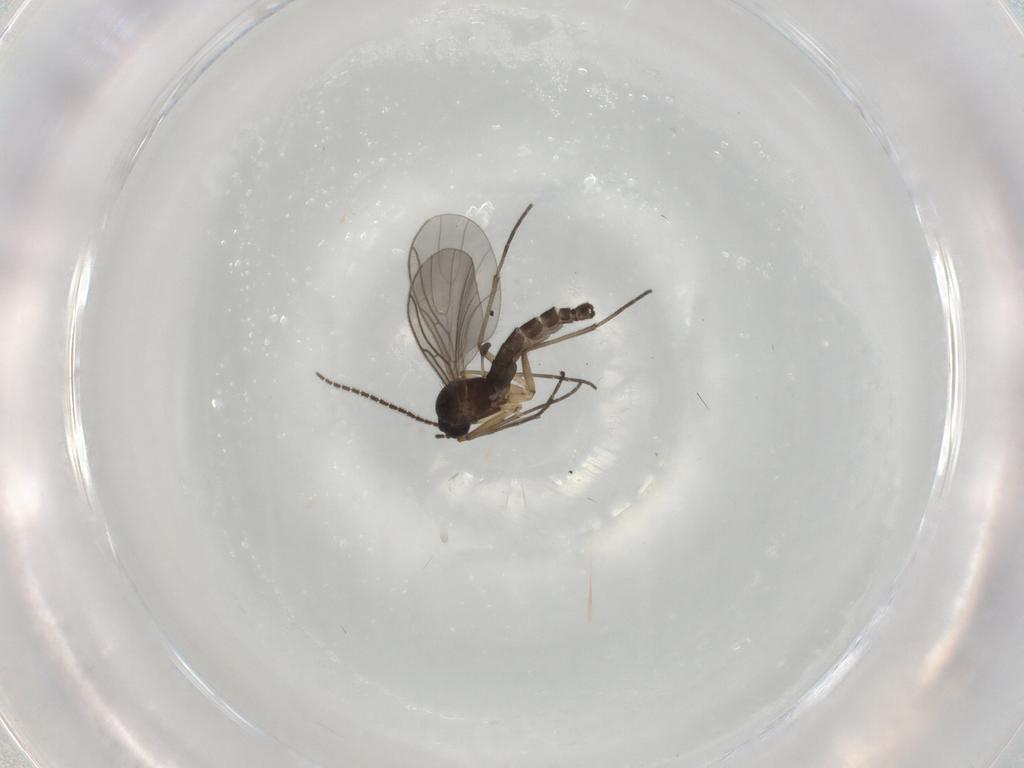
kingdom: Animalia
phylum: Arthropoda
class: Insecta
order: Diptera
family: Sciaridae
